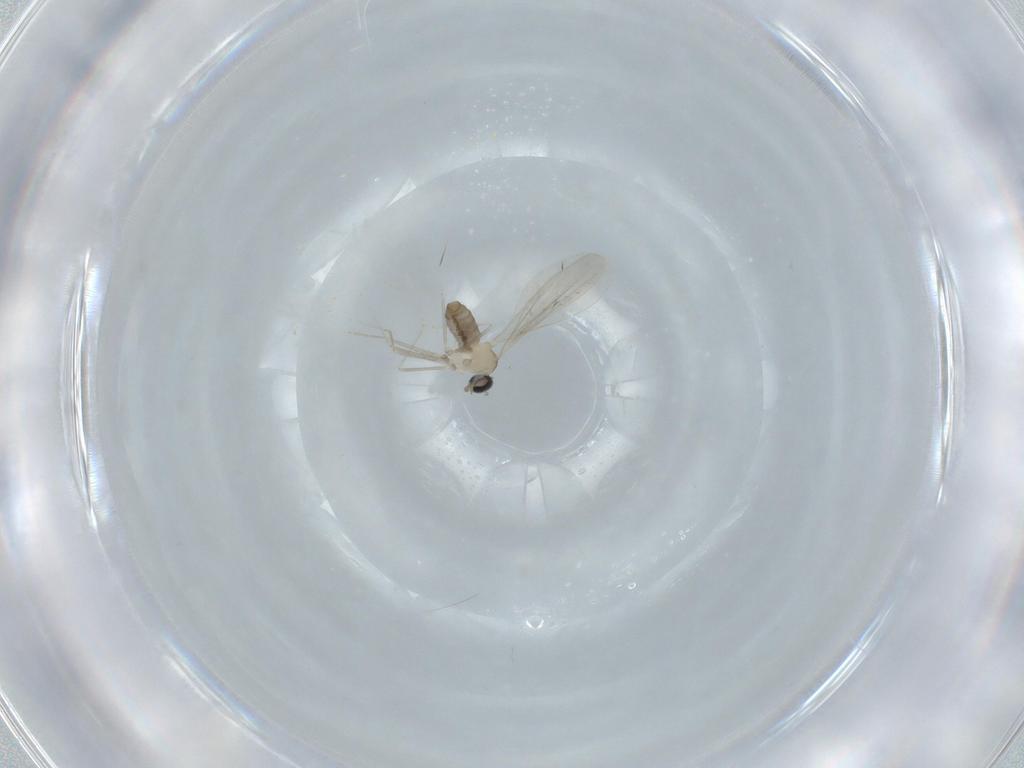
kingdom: Animalia
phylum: Arthropoda
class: Insecta
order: Diptera
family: Cecidomyiidae
